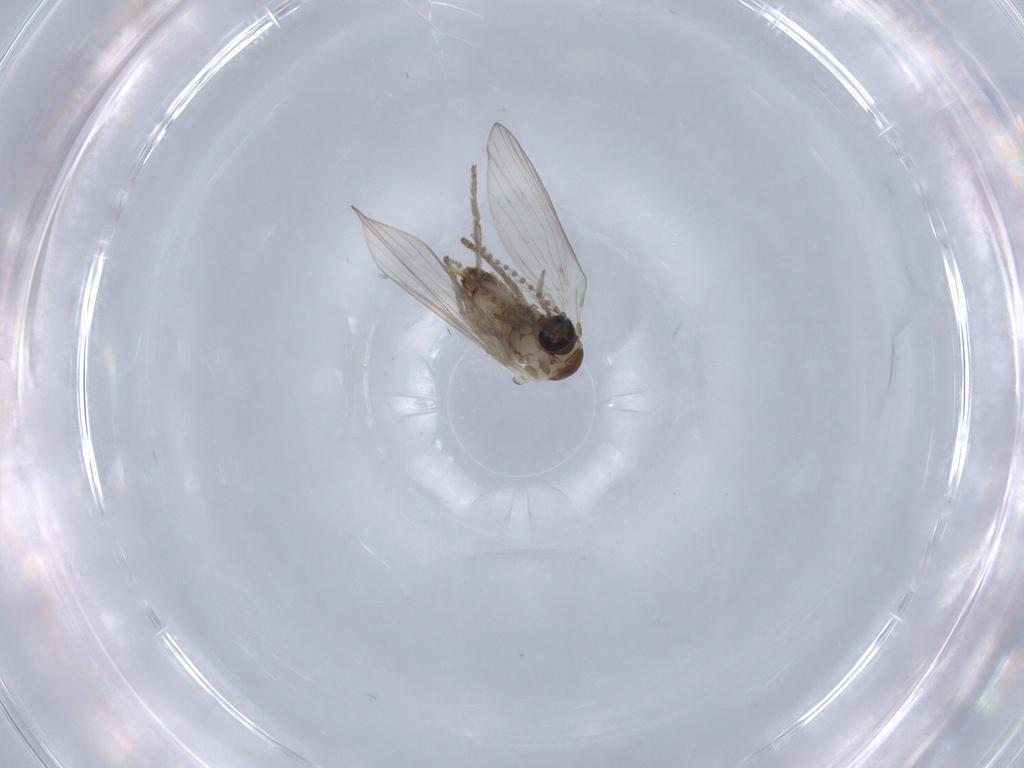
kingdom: Animalia
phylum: Arthropoda
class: Insecta
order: Diptera
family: Psychodidae
